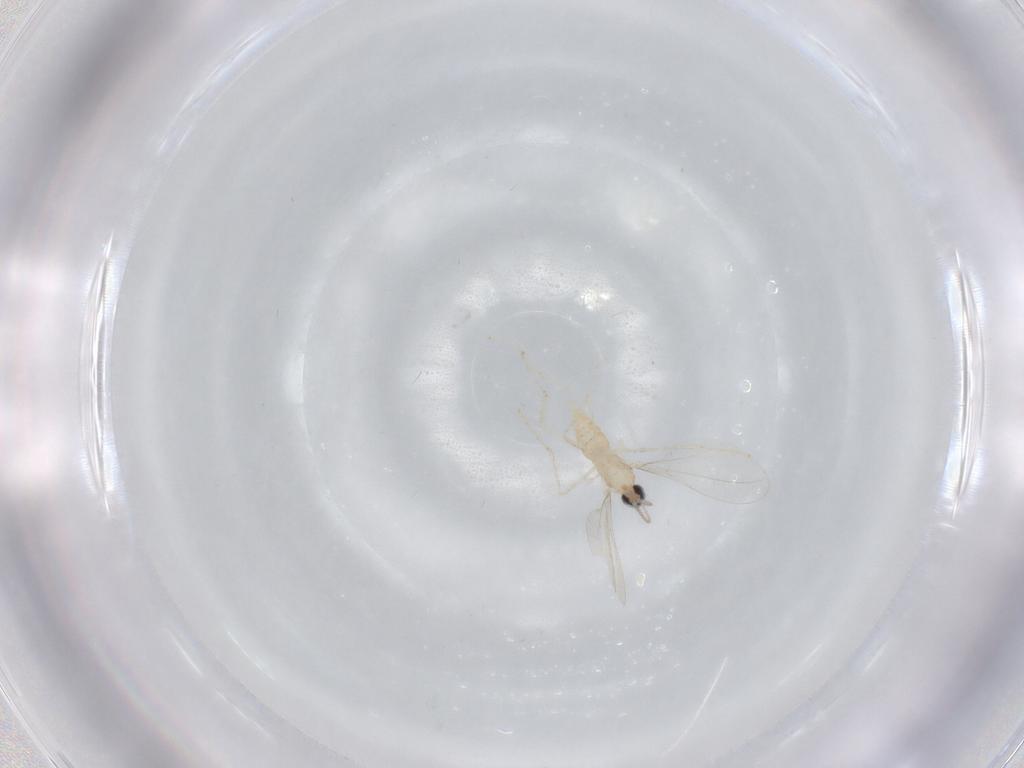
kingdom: Animalia
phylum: Arthropoda
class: Insecta
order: Diptera
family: Cecidomyiidae
